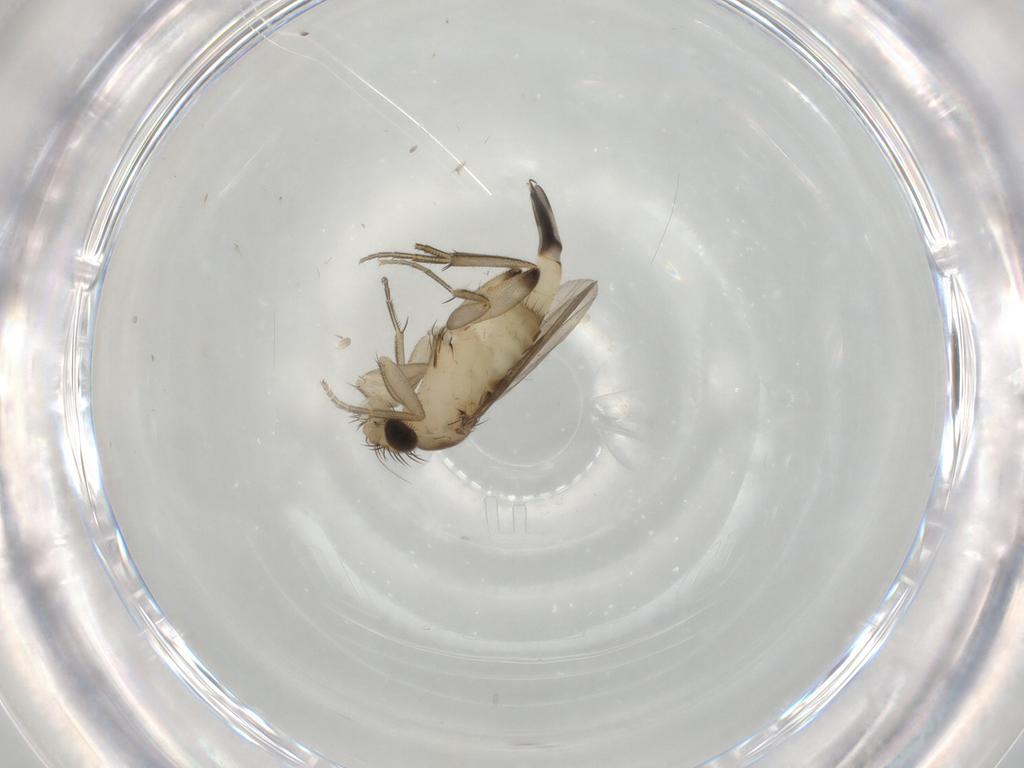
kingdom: Animalia
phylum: Arthropoda
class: Insecta
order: Diptera
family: Phoridae
